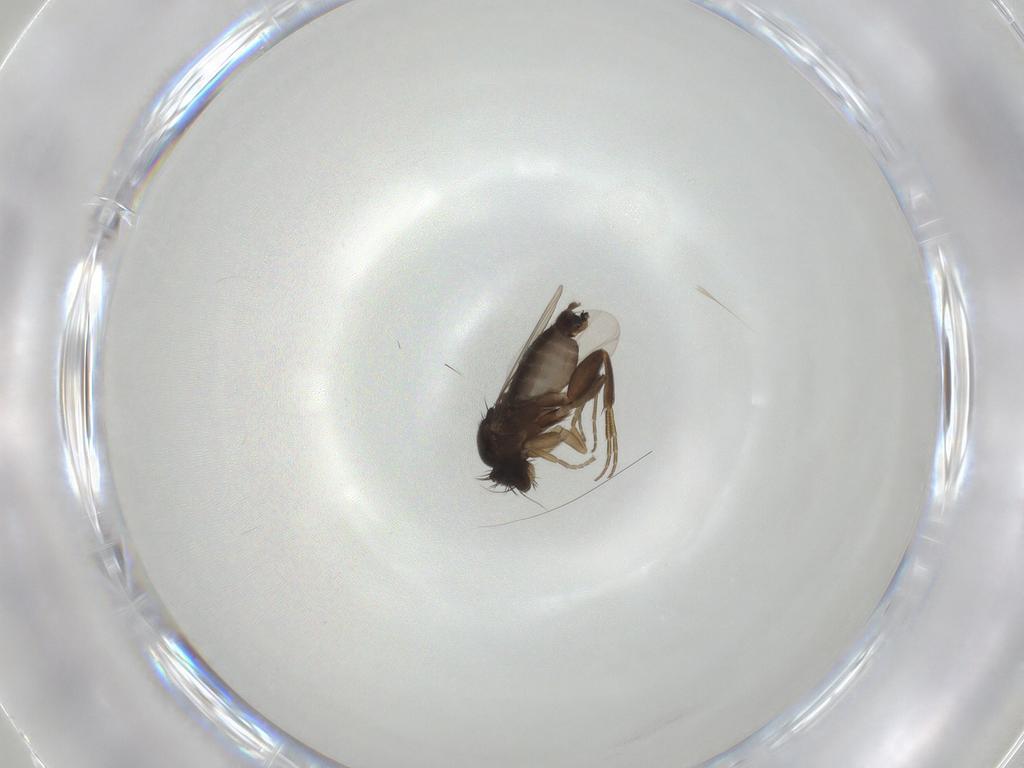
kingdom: Animalia
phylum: Arthropoda
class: Insecta
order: Diptera
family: Phoridae
